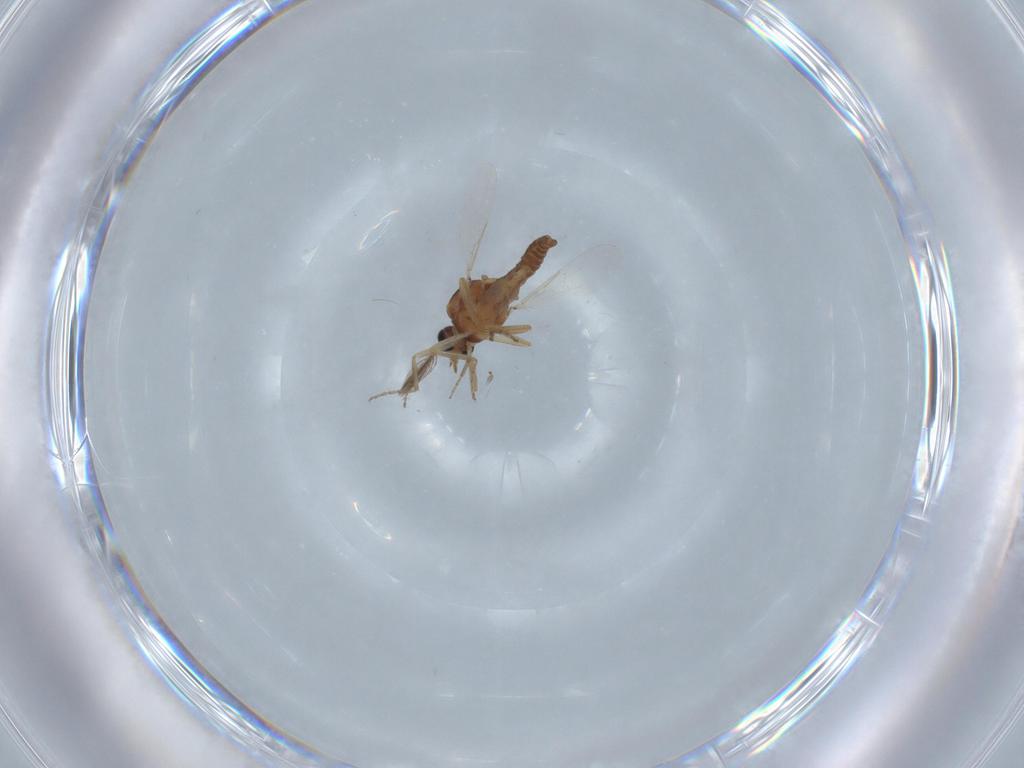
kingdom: Animalia
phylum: Arthropoda
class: Insecta
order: Diptera
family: Ceratopogonidae
